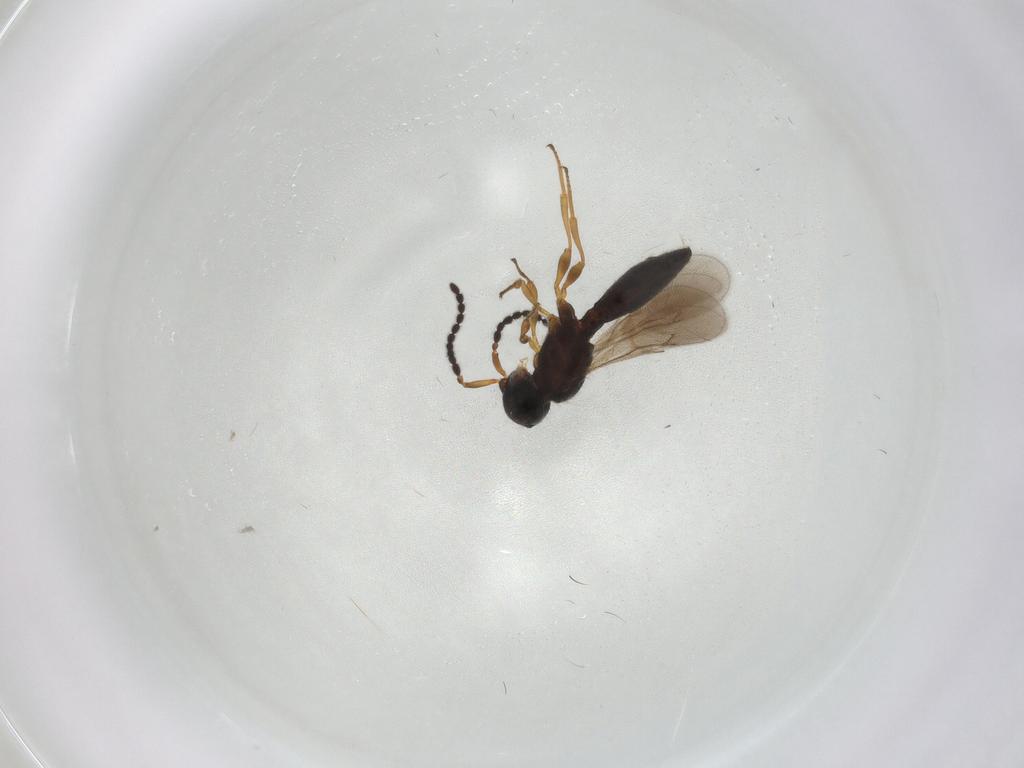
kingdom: Animalia
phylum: Arthropoda
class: Insecta
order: Hymenoptera
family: Scelionidae
